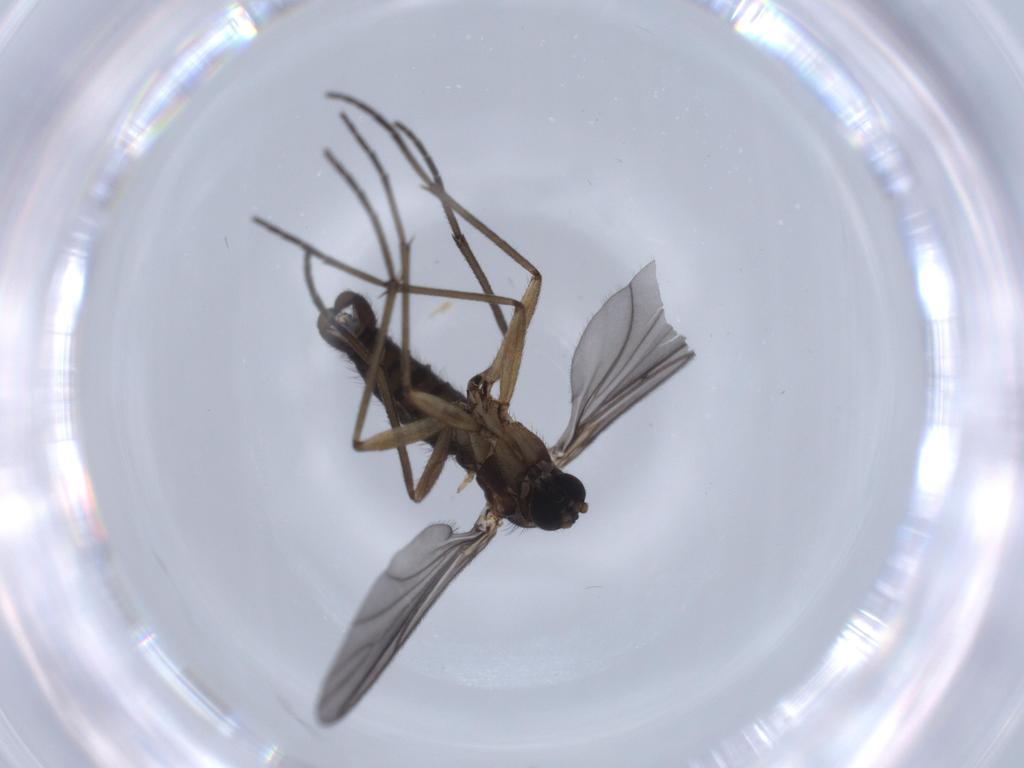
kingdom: Animalia
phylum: Arthropoda
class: Insecta
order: Diptera
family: Sciaridae
